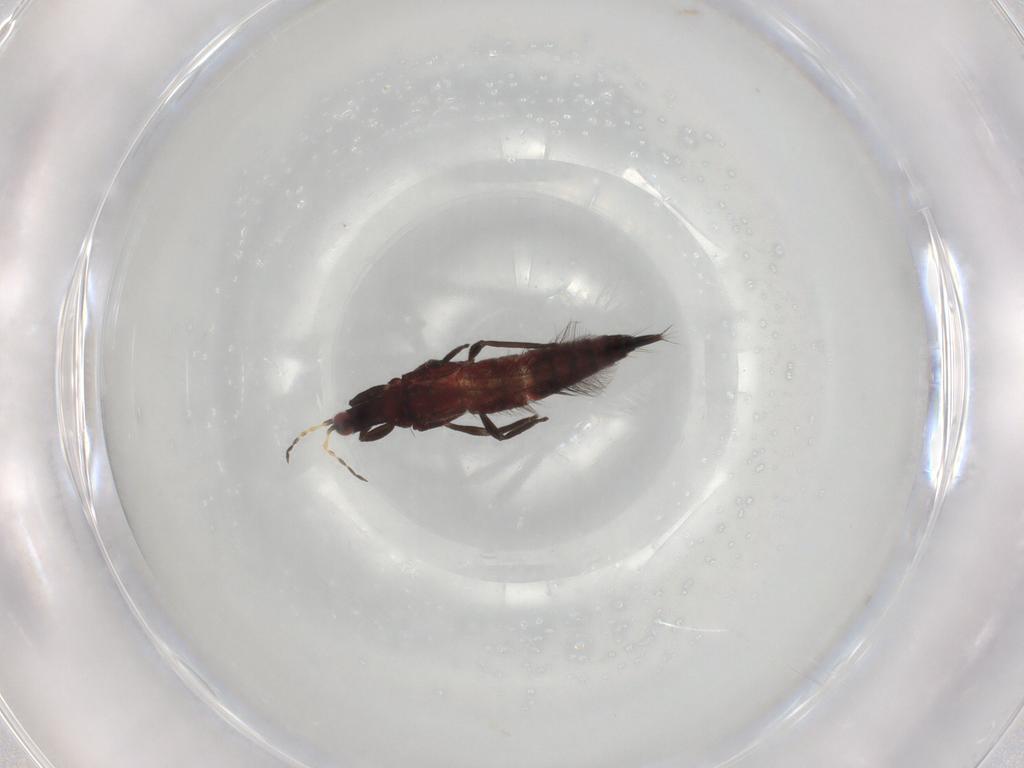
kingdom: Animalia
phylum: Arthropoda
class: Insecta
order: Thysanoptera
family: Phlaeothripidae
